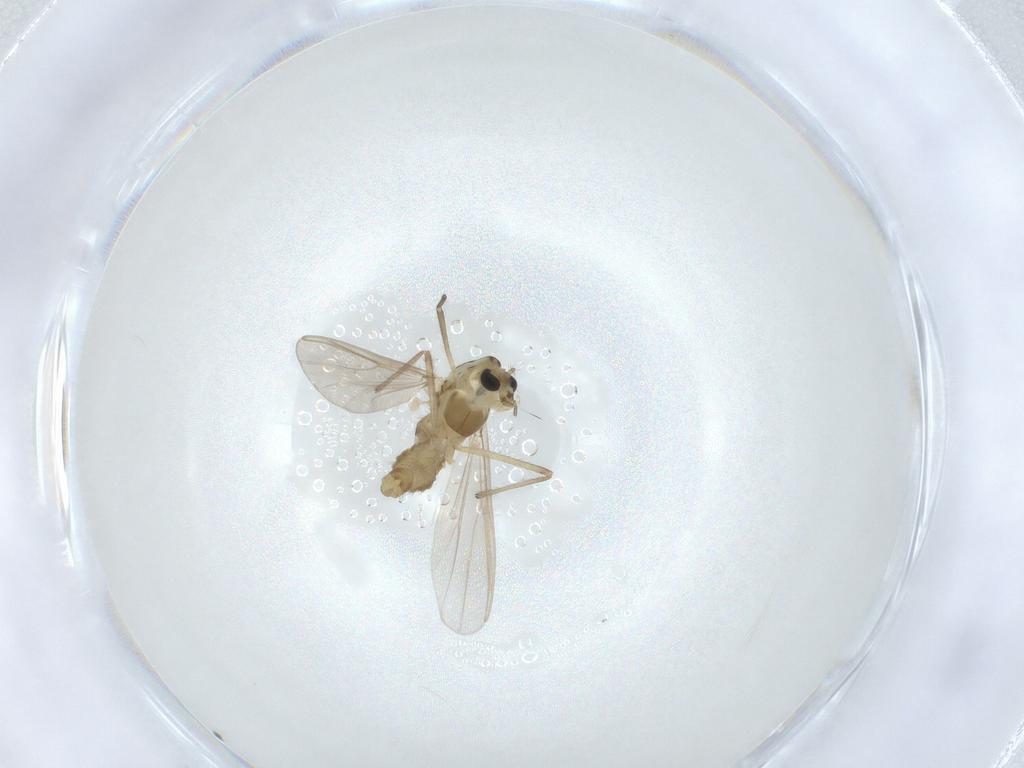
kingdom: Animalia
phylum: Arthropoda
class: Insecta
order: Diptera
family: Chironomidae
